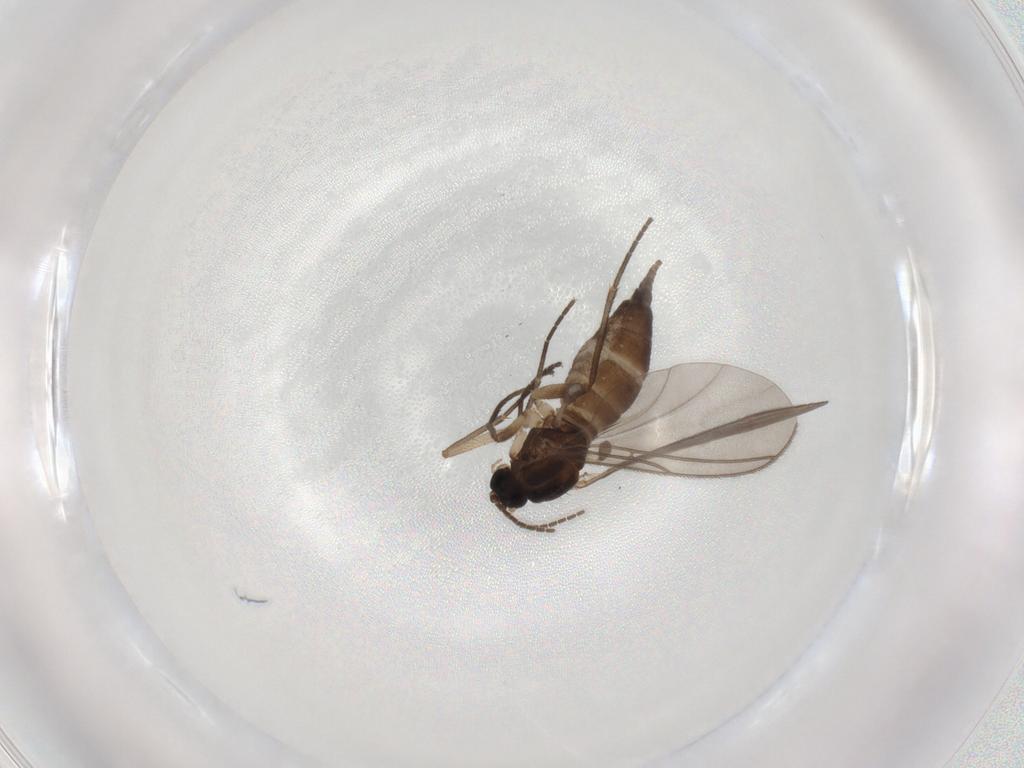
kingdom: Animalia
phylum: Arthropoda
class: Insecta
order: Diptera
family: Sciaridae
